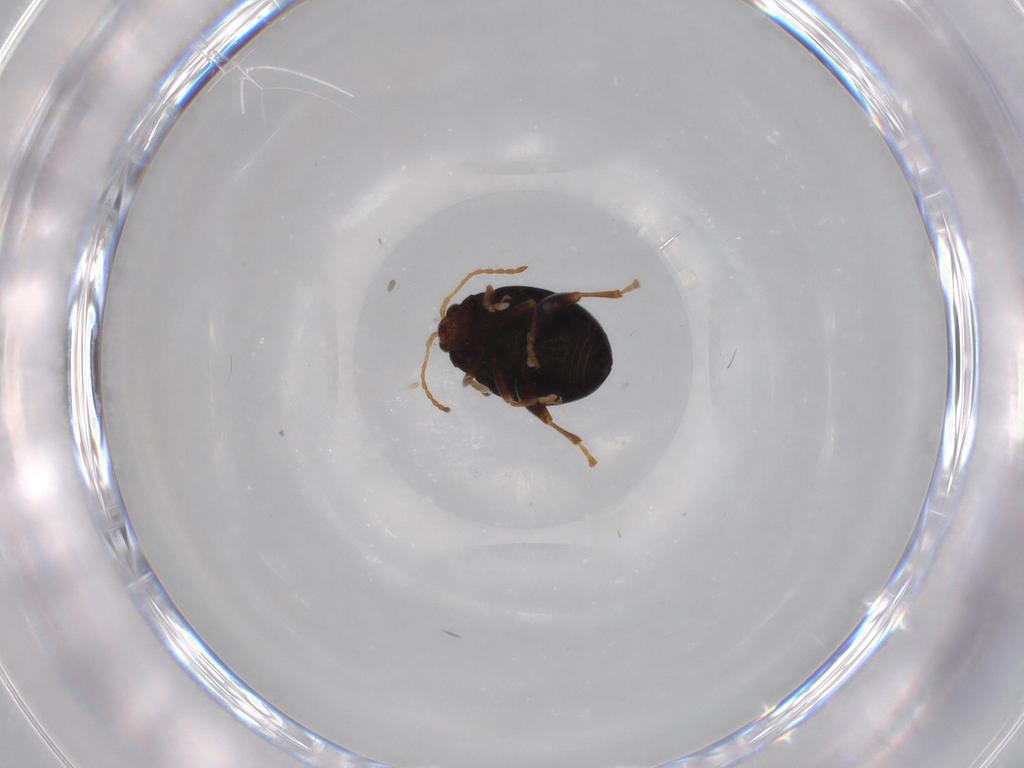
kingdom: Animalia
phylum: Arthropoda
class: Insecta
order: Coleoptera
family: Chrysomelidae
